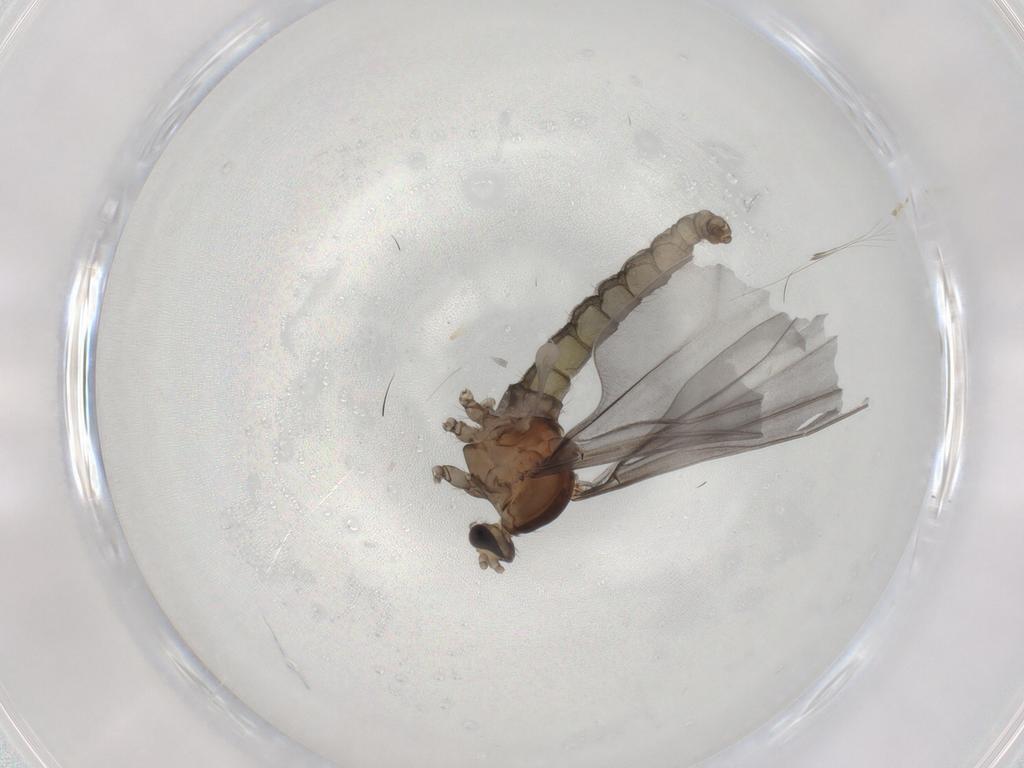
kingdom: Animalia
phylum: Arthropoda
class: Insecta
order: Diptera
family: Cecidomyiidae
